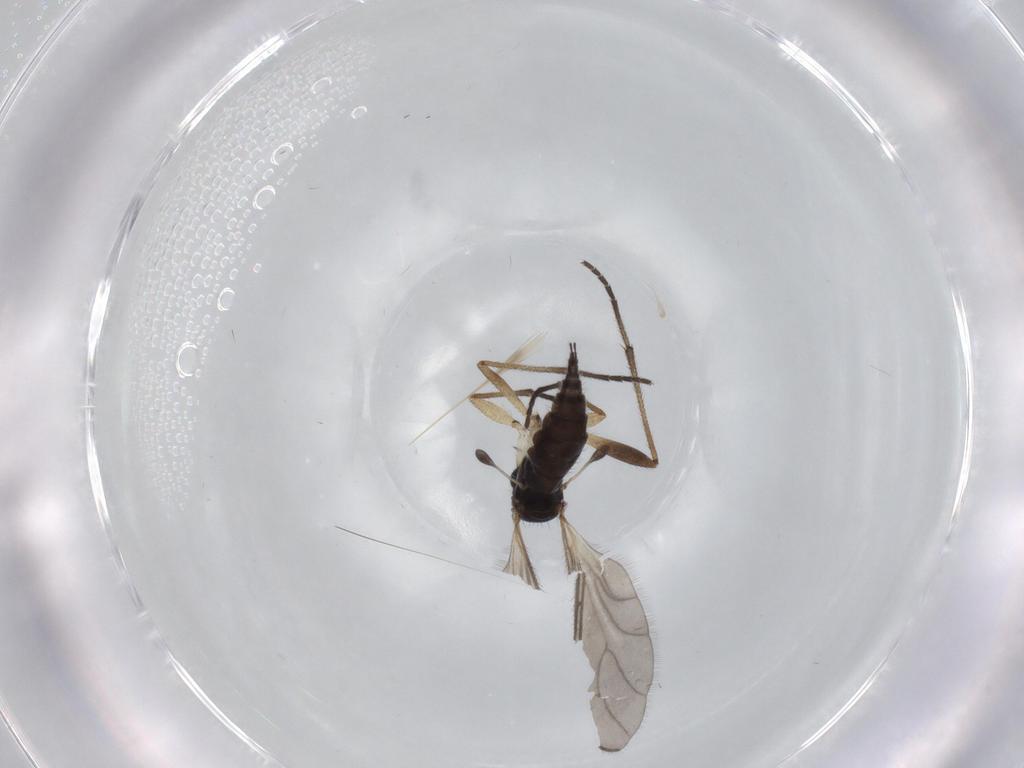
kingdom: Animalia
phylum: Arthropoda
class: Insecta
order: Diptera
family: Sciaridae
